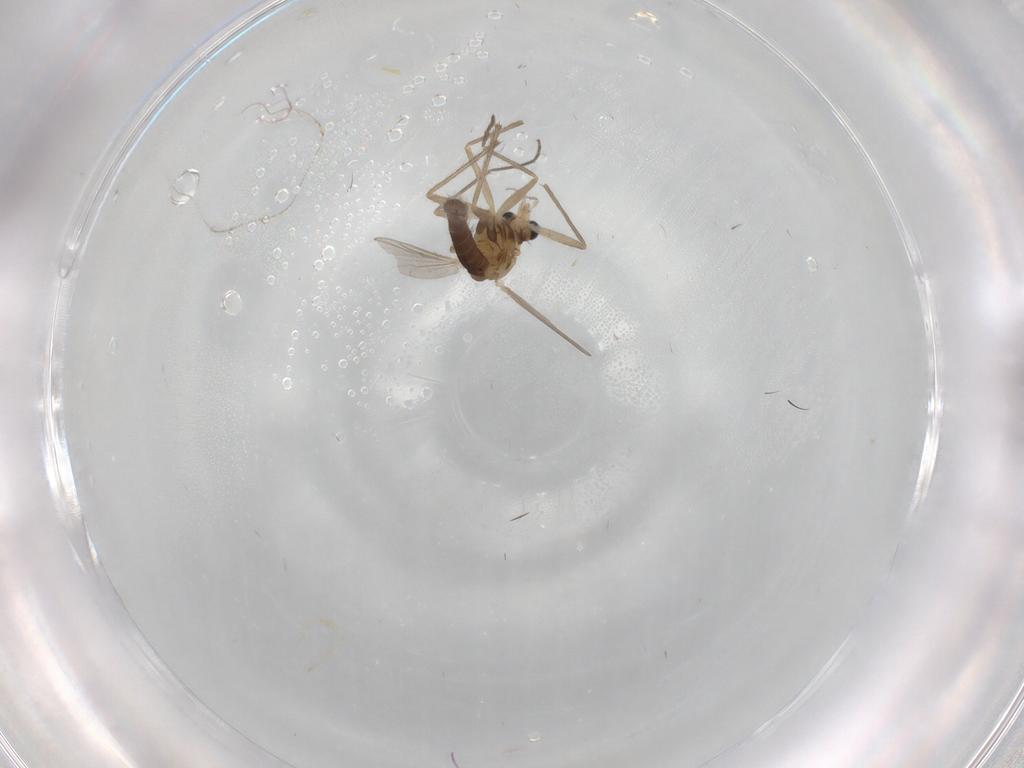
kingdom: Animalia
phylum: Arthropoda
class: Insecta
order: Diptera
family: Chironomidae
